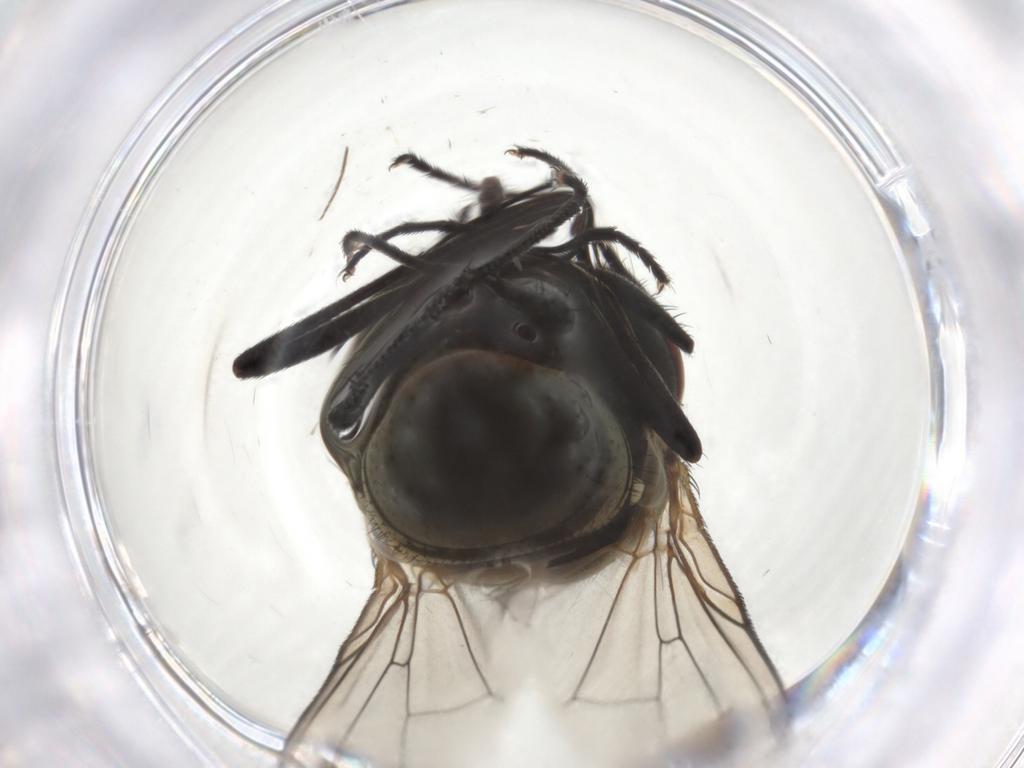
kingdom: Animalia
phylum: Arthropoda
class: Insecta
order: Diptera
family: Muscidae
